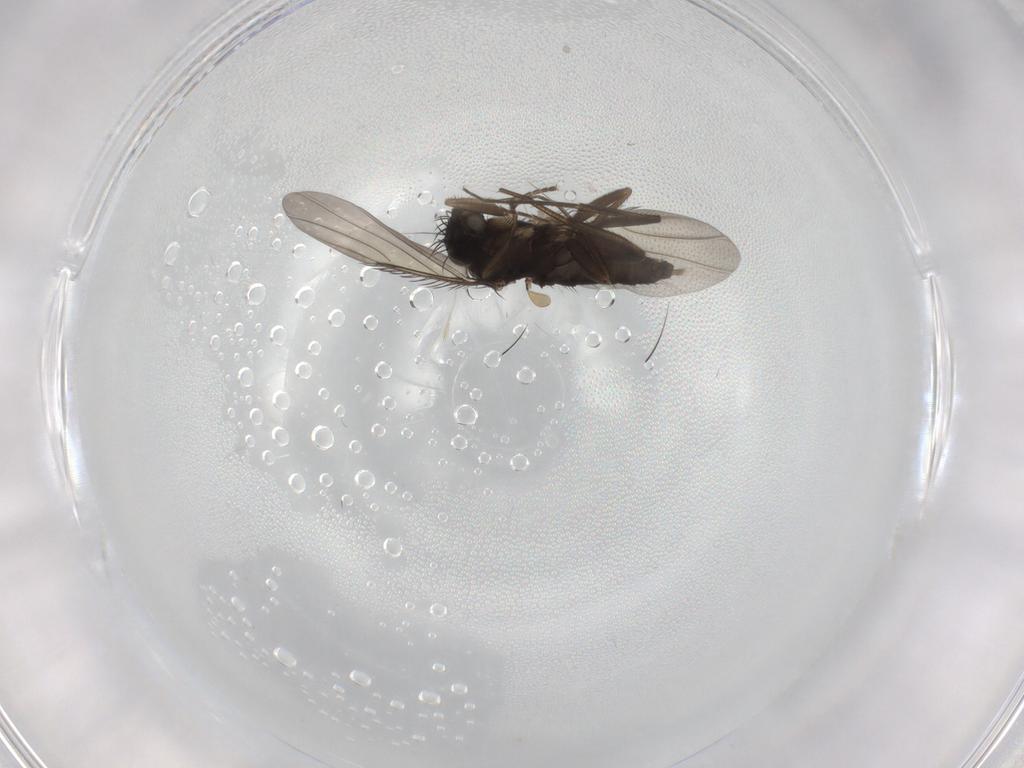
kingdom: Animalia
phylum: Arthropoda
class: Insecta
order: Diptera
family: Phoridae
